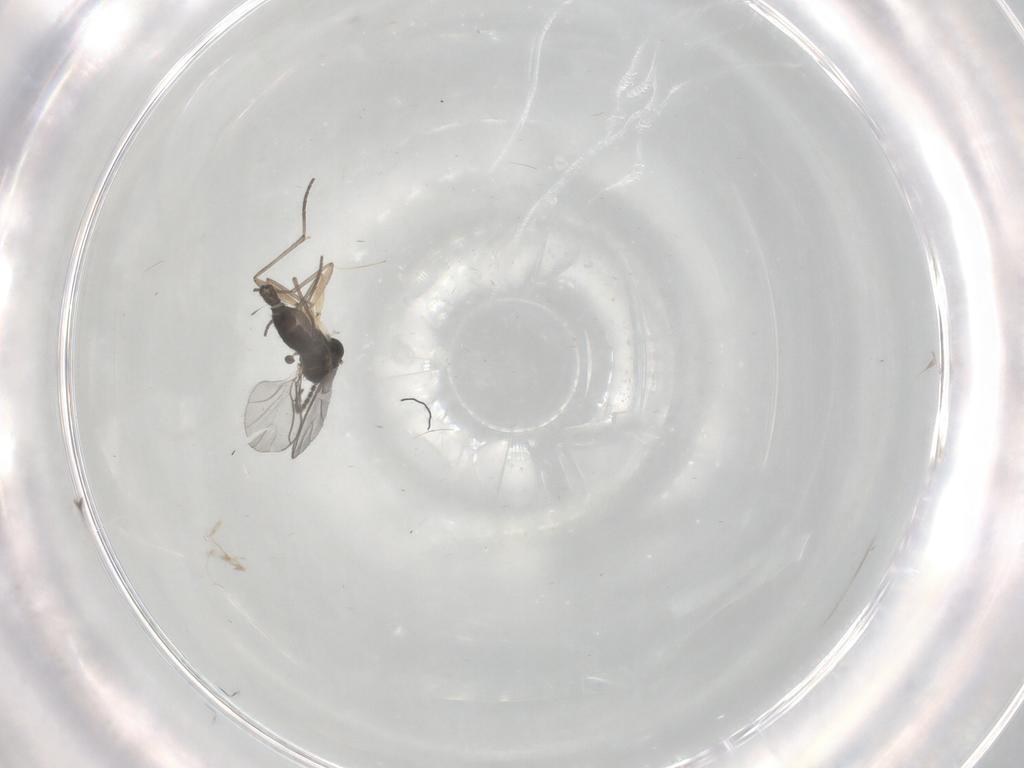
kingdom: Animalia
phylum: Arthropoda
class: Insecta
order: Diptera
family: Sciaridae
